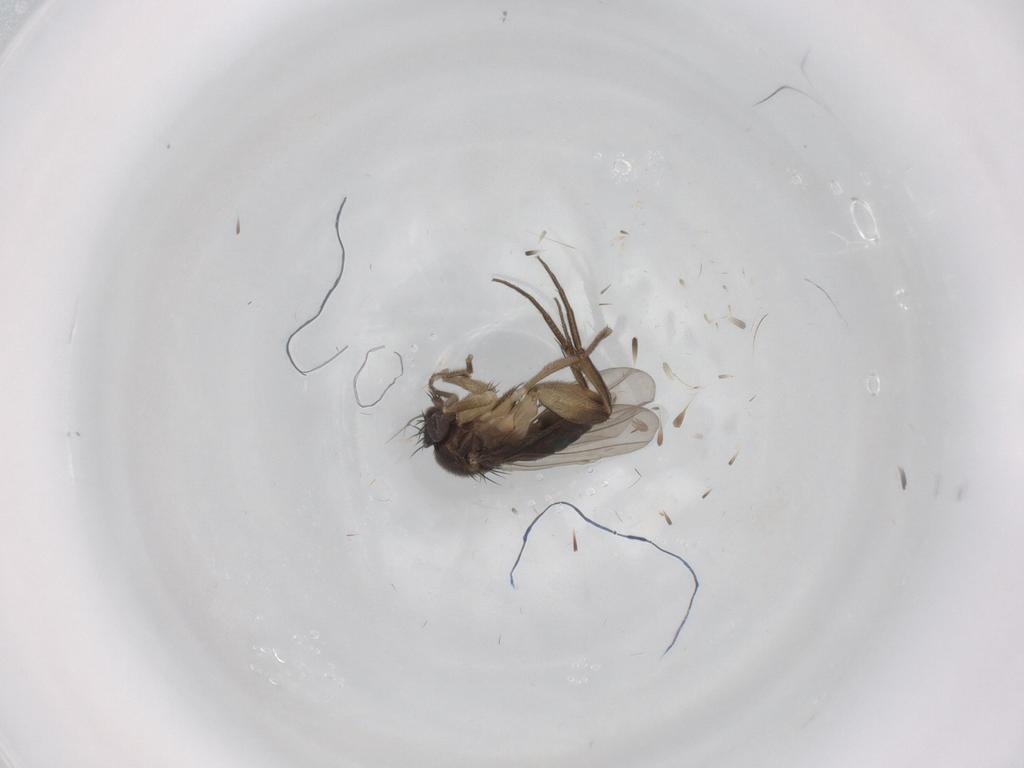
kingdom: Animalia
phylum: Arthropoda
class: Insecta
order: Diptera
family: Phoridae
